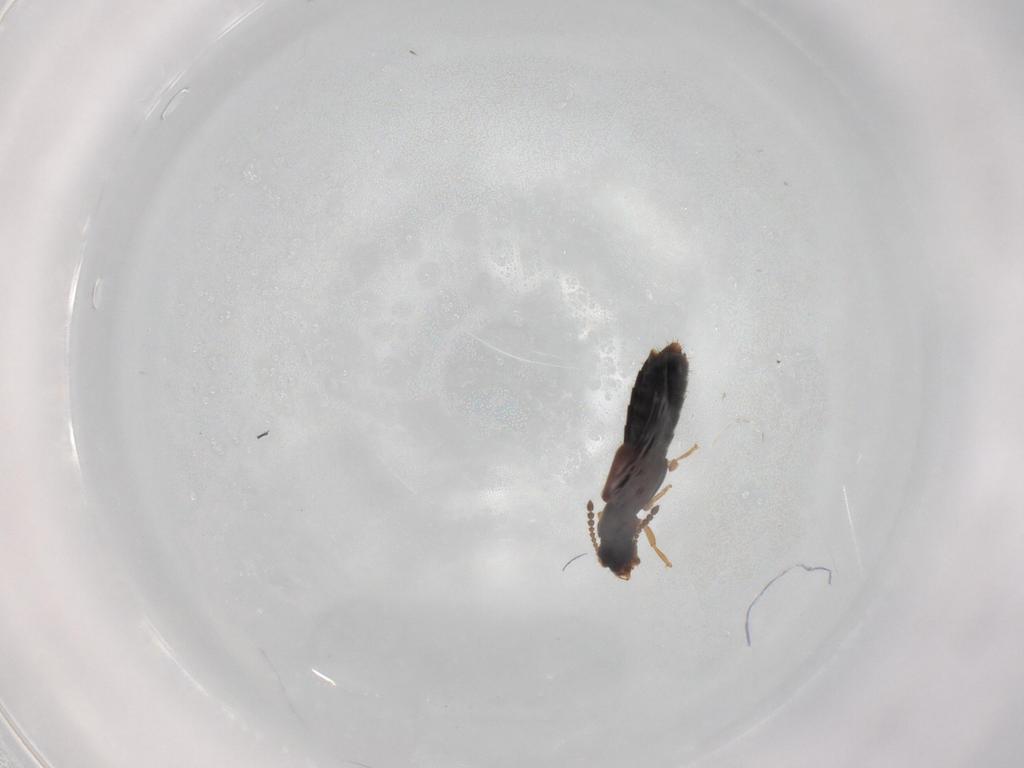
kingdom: Animalia
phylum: Arthropoda
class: Insecta
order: Coleoptera
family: Staphylinidae
